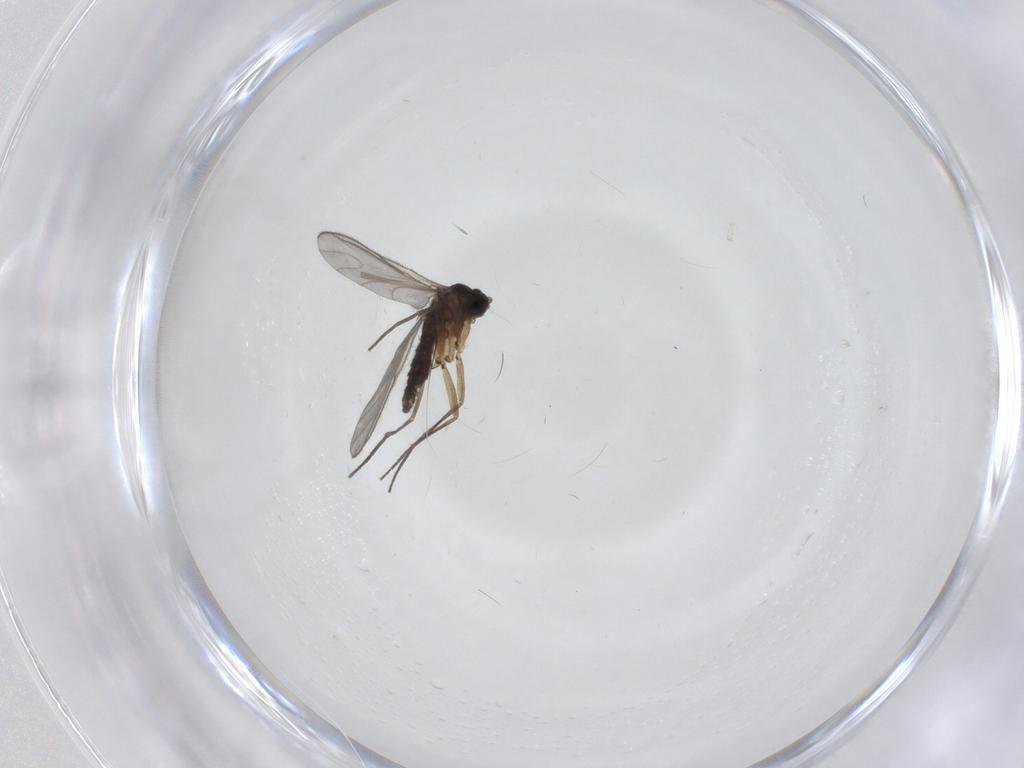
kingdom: Animalia
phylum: Arthropoda
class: Insecta
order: Diptera
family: Sciaridae
